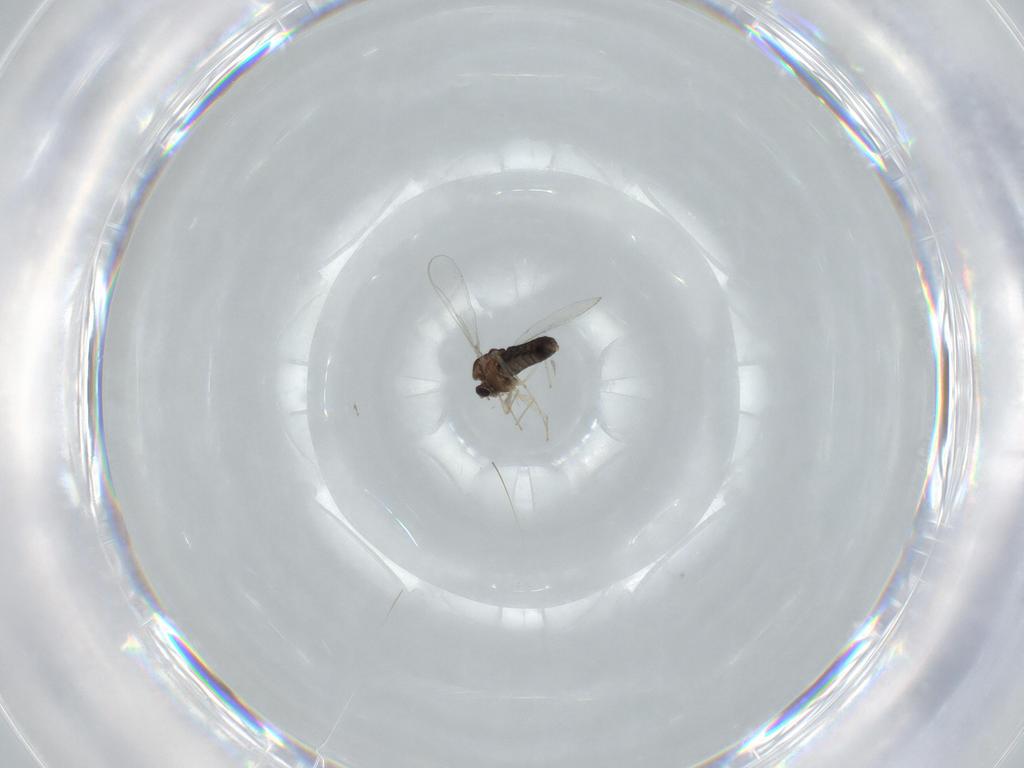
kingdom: Animalia
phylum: Arthropoda
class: Insecta
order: Diptera
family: Chironomidae
